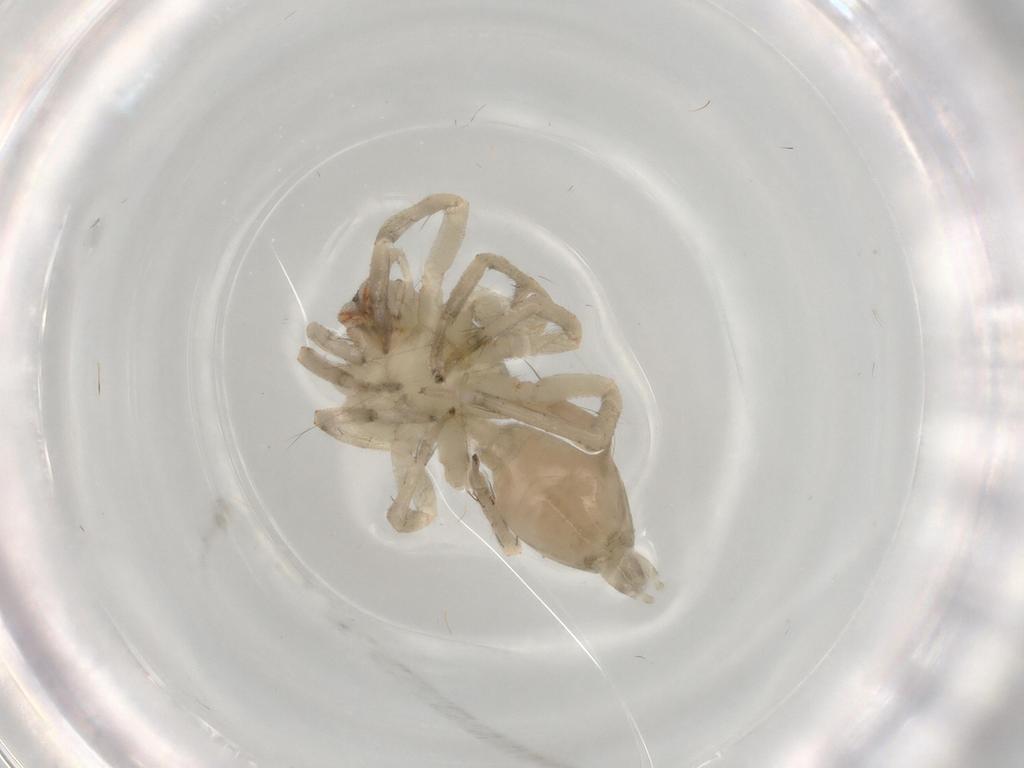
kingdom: Animalia
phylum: Arthropoda
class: Arachnida
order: Araneae
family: Anyphaenidae
